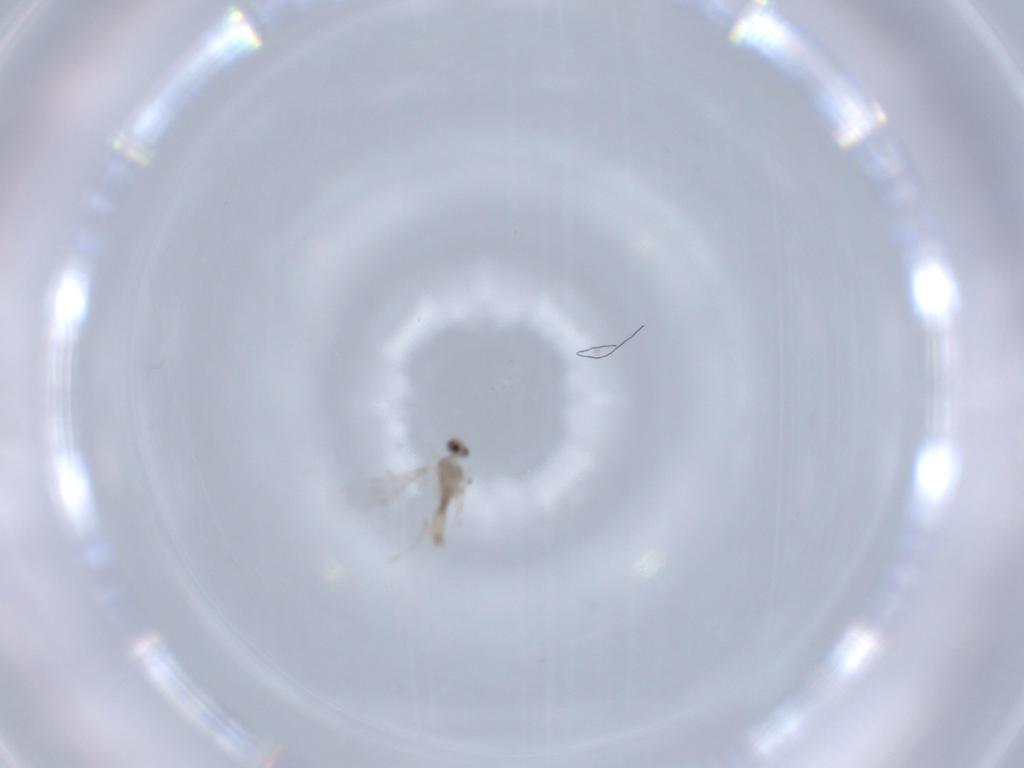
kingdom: Animalia
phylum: Arthropoda
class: Insecta
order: Diptera
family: Cecidomyiidae
